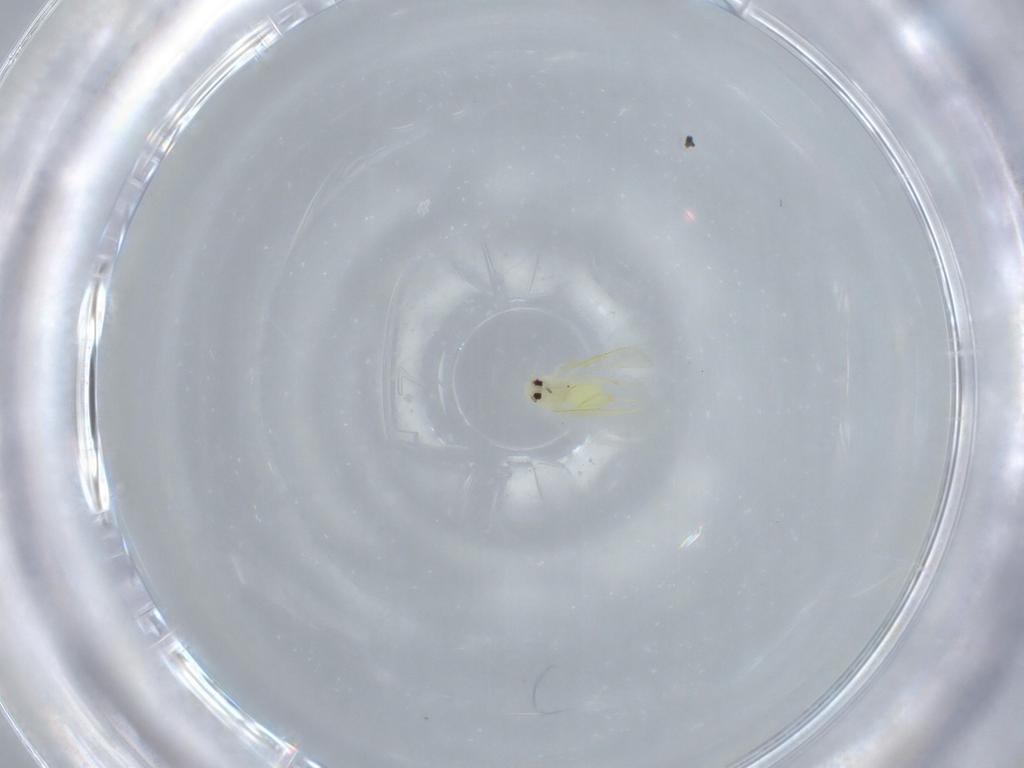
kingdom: Animalia
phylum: Arthropoda
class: Insecta
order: Hemiptera
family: Aleyrodidae
